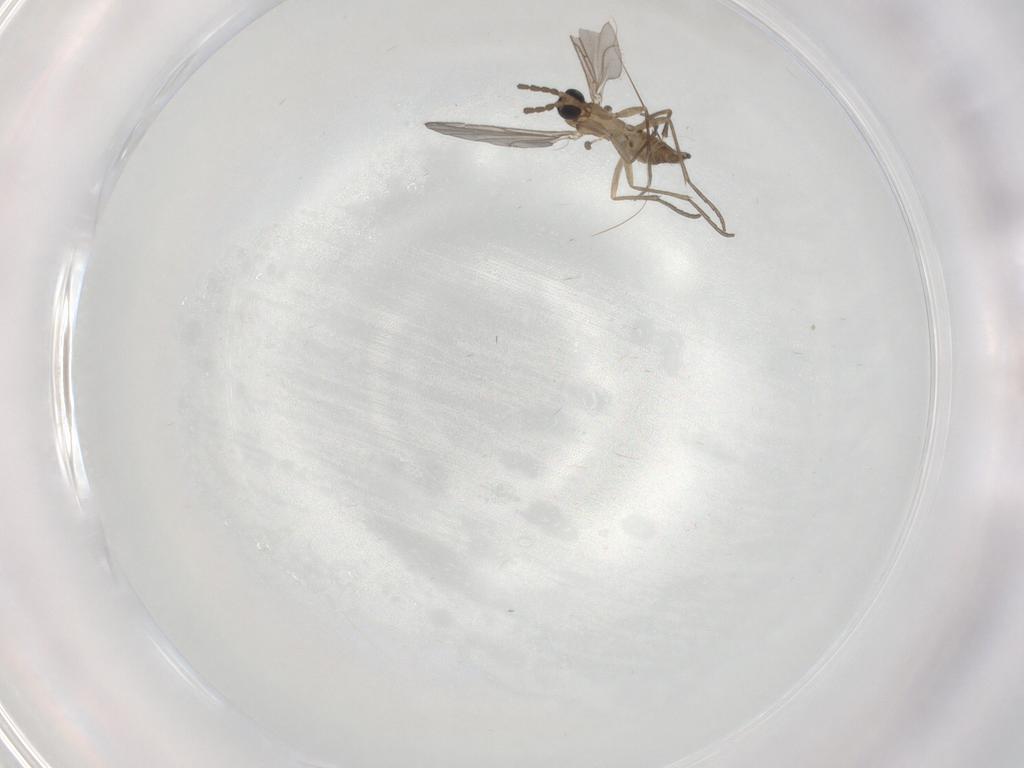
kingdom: Animalia
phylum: Arthropoda
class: Insecta
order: Diptera
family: Sciaridae
